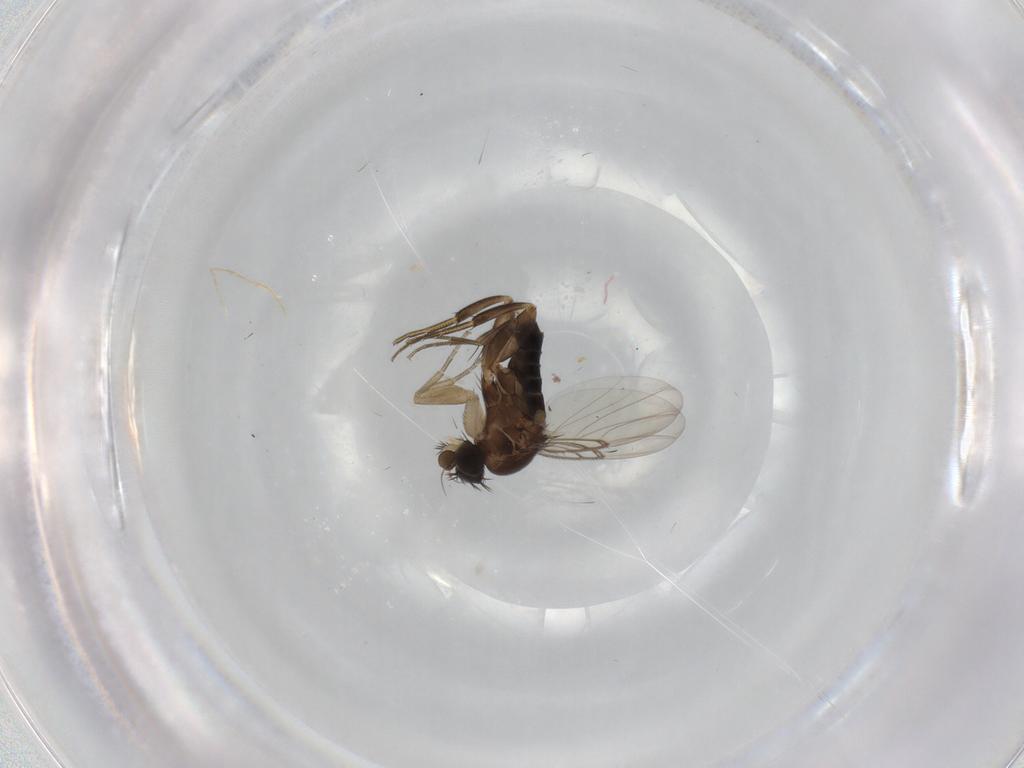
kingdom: Animalia
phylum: Arthropoda
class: Insecta
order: Diptera
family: Phoridae
